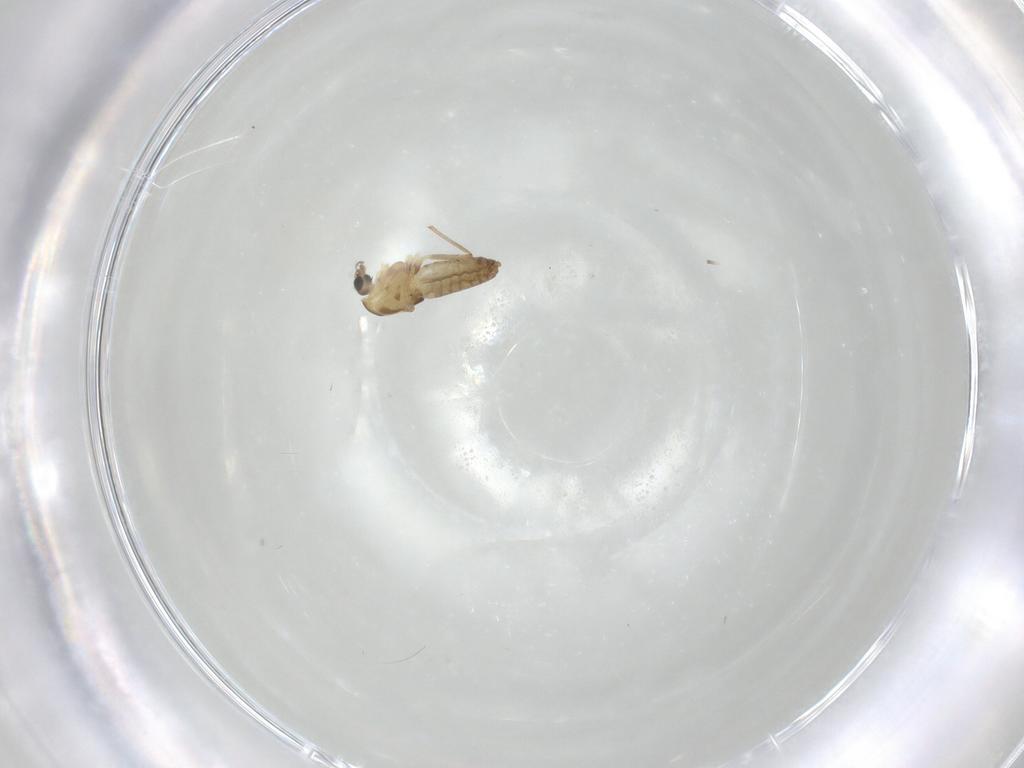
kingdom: Animalia
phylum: Arthropoda
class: Insecta
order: Diptera
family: Chironomidae
